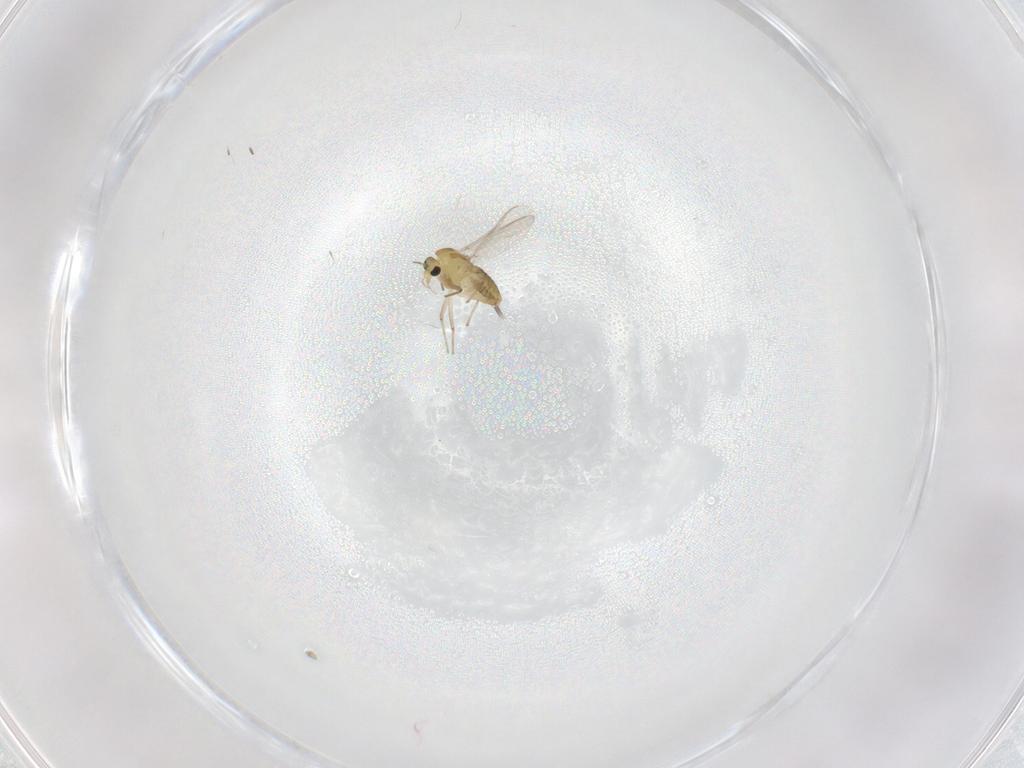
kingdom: Animalia
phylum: Arthropoda
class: Insecta
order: Diptera
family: Chironomidae
